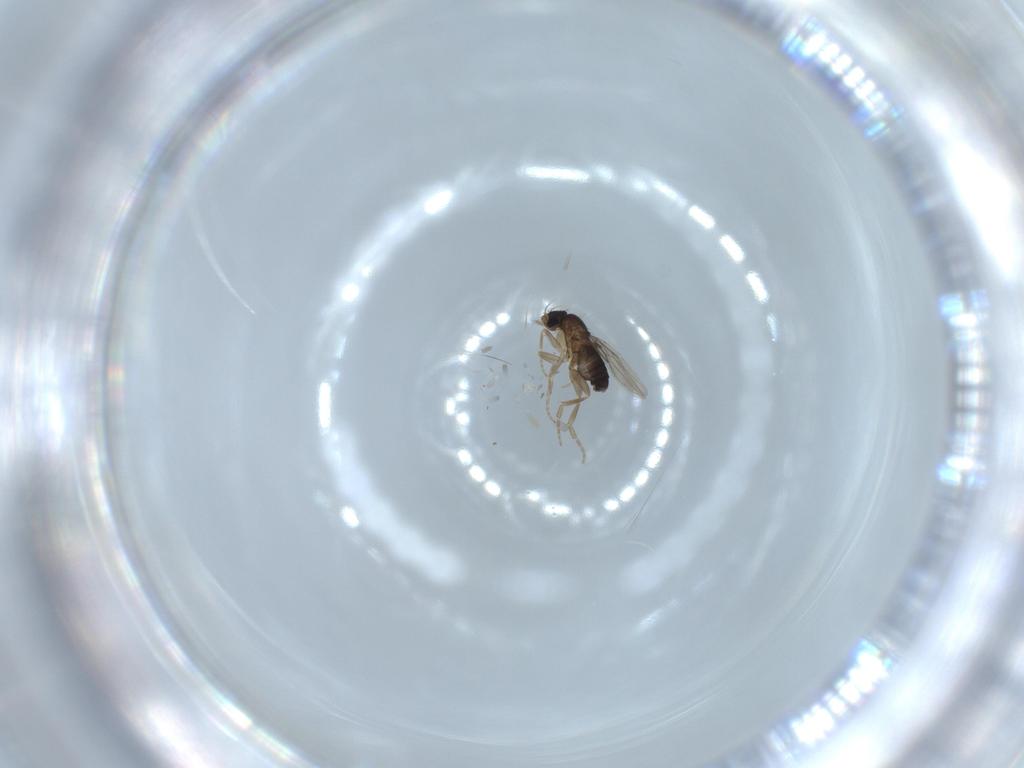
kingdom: Animalia
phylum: Arthropoda
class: Insecta
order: Diptera
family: Phoridae
